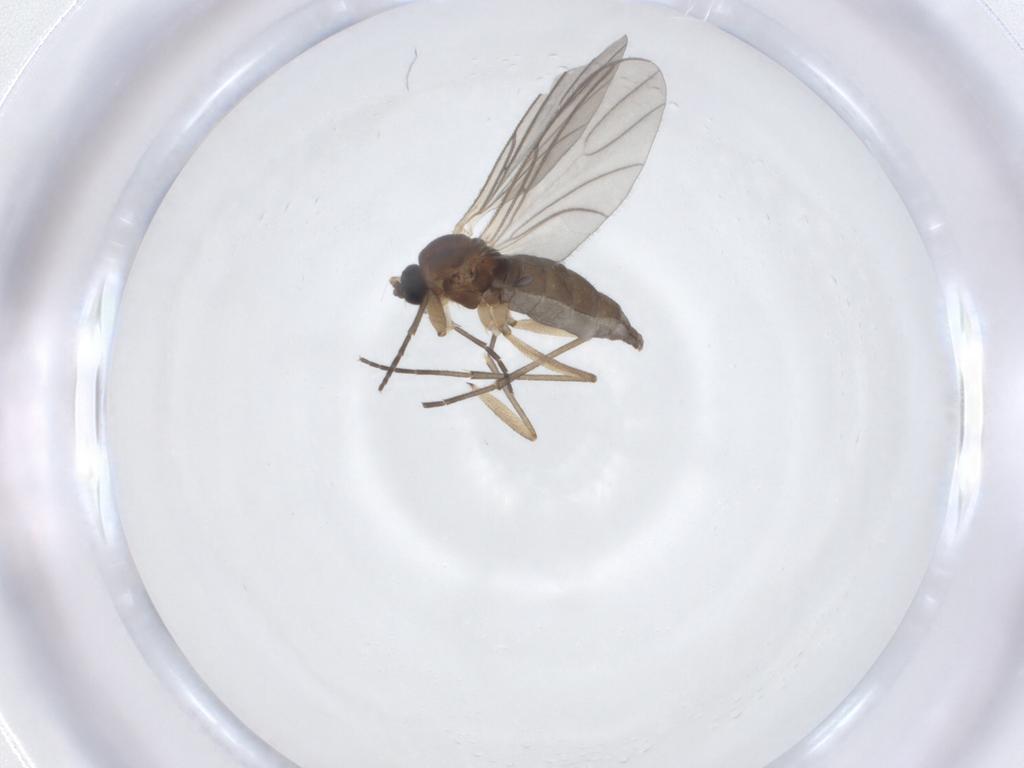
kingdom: Animalia
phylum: Arthropoda
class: Insecta
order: Diptera
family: Sciaridae
